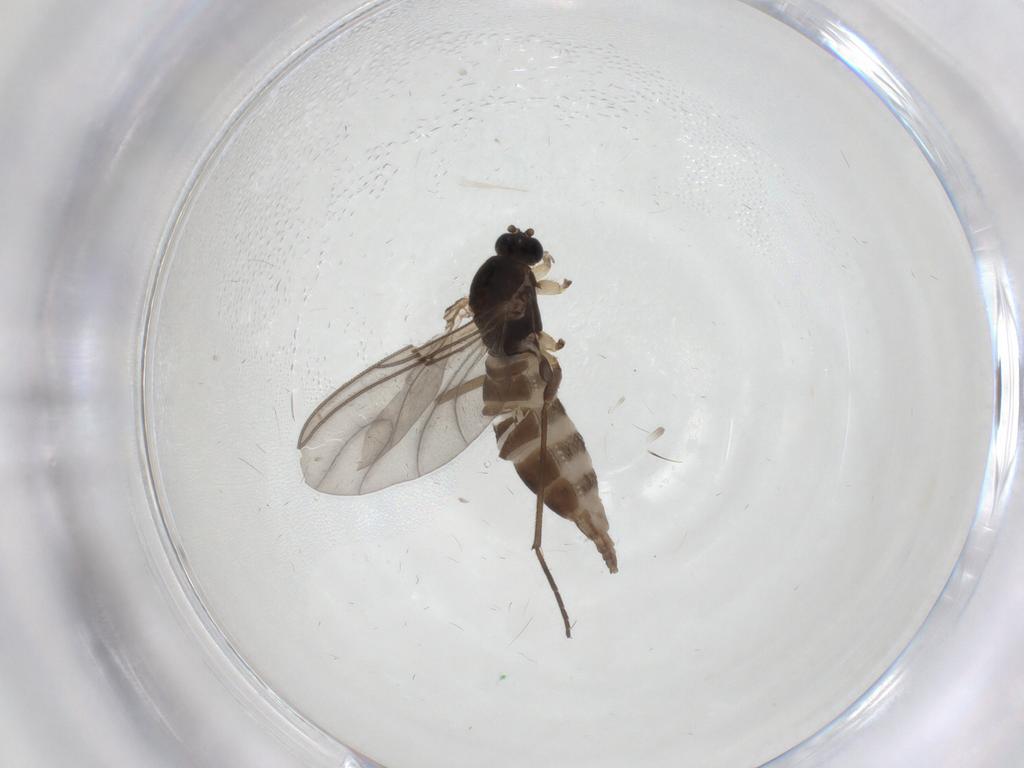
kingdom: Animalia
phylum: Arthropoda
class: Insecta
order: Diptera
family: Sciaridae
